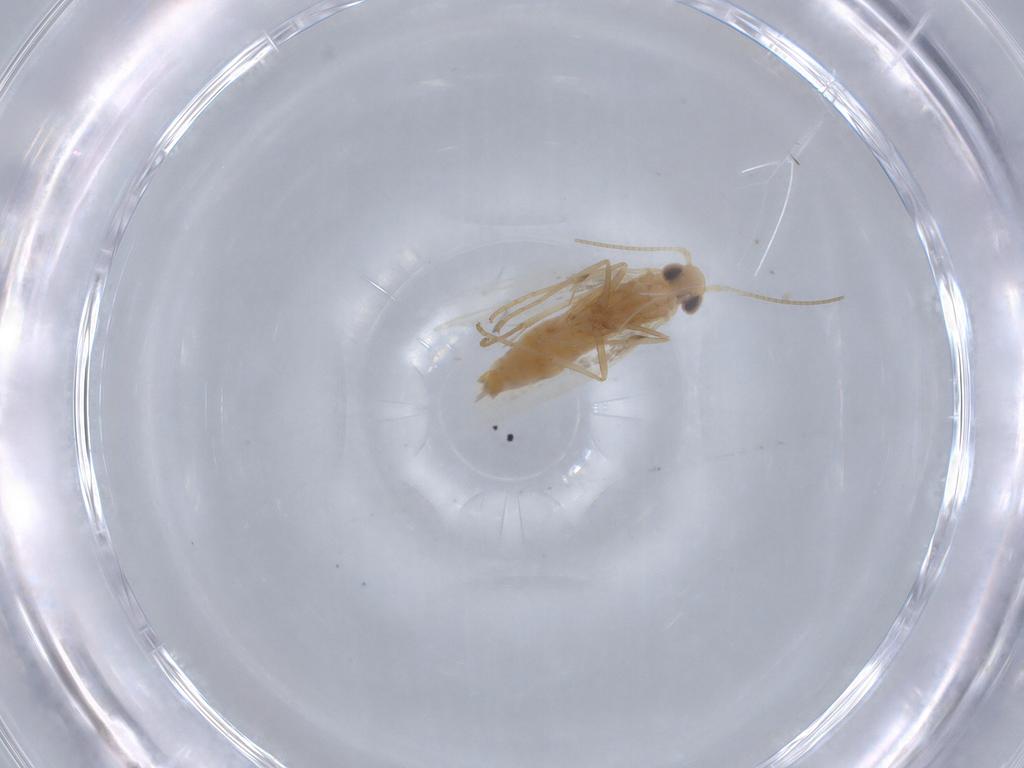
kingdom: Animalia
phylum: Arthropoda
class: Insecta
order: Lepidoptera
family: Gracillariidae
